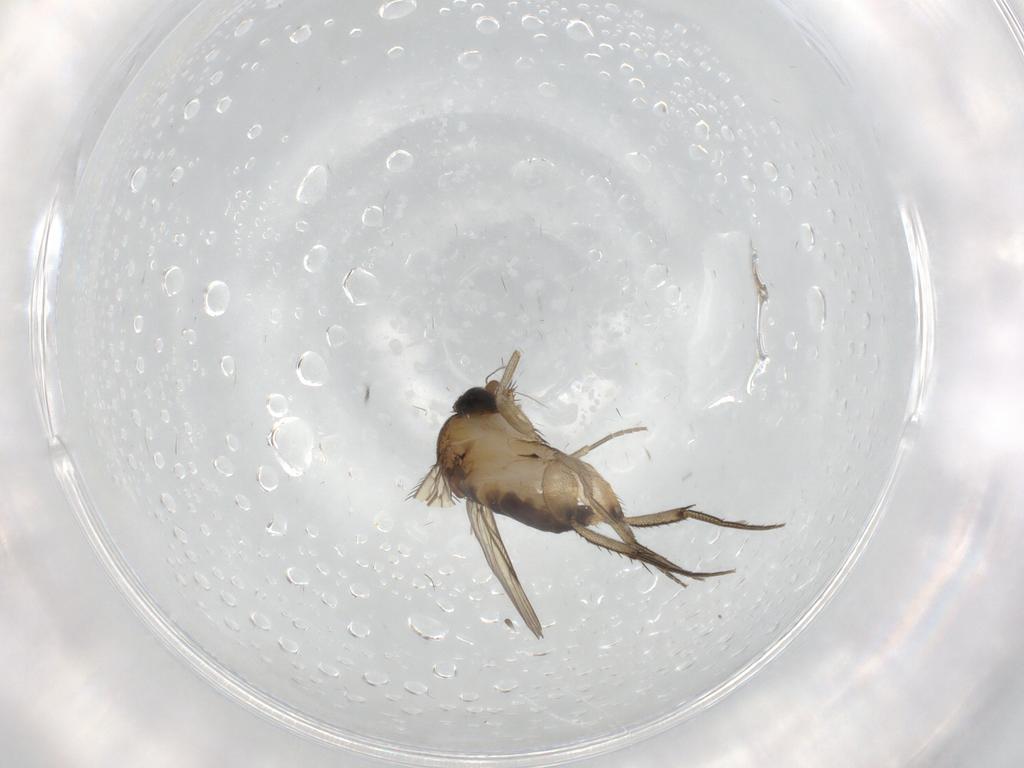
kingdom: Animalia
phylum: Arthropoda
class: Insecta
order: Diptera
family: Phoridae
